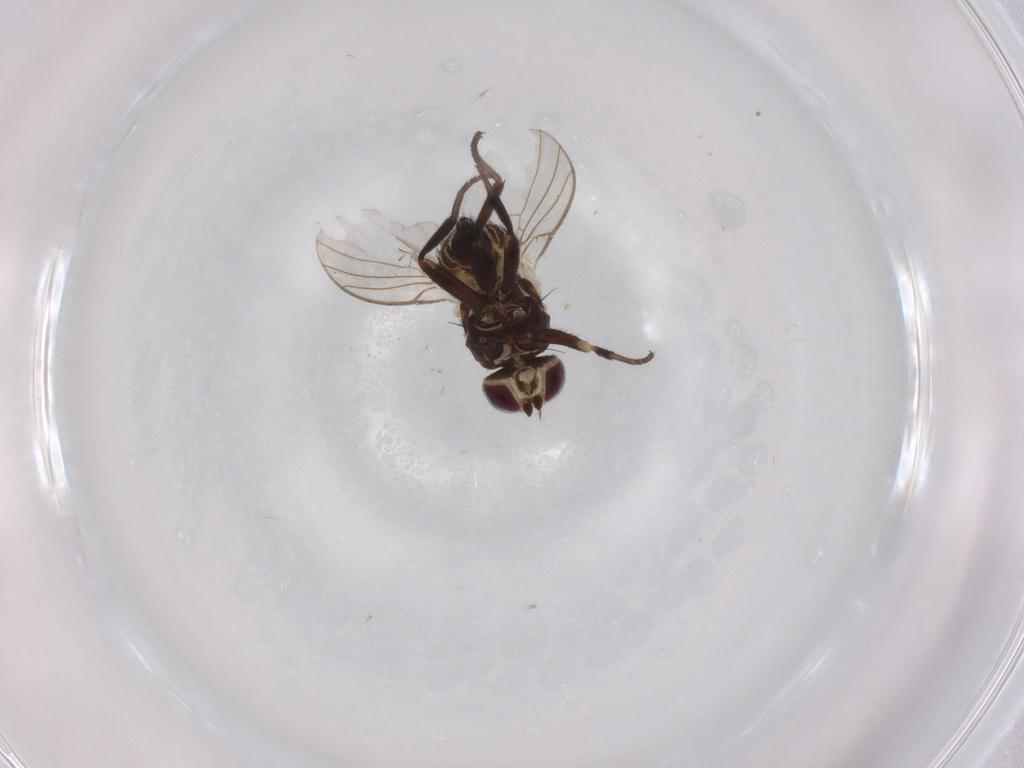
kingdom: Animalia
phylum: Arthropoda
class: Insecta
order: Diptera
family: Agromyzidae
